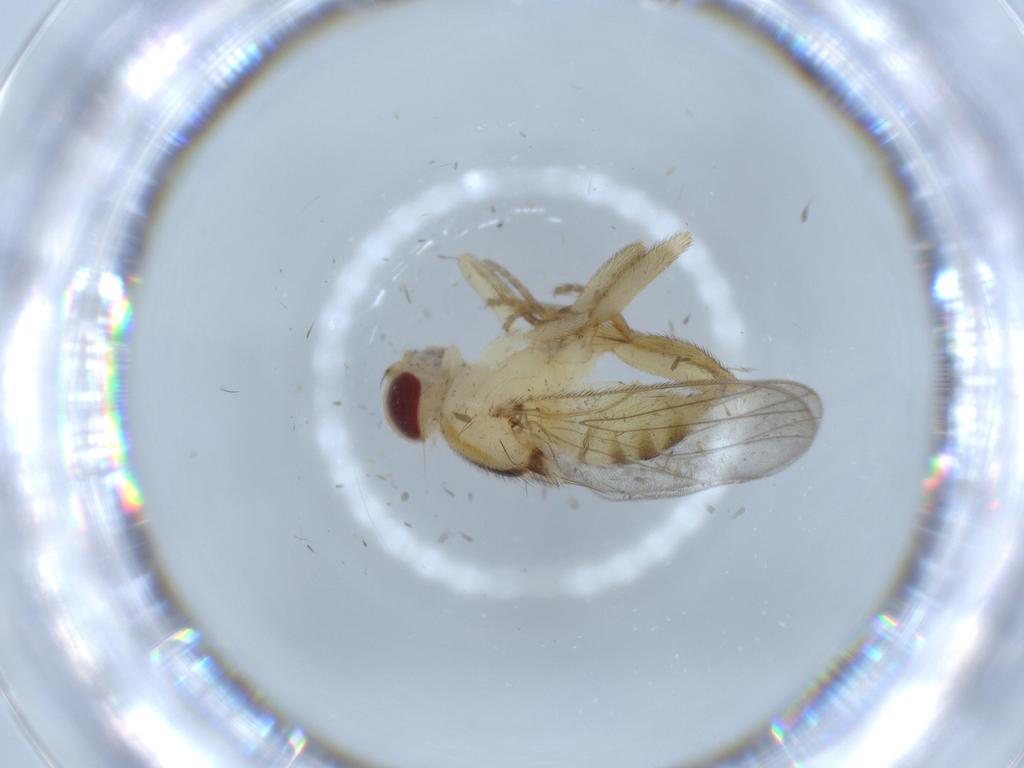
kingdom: Animalia
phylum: Arthropoda
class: Insecta
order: Diptera
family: Chloropidae
